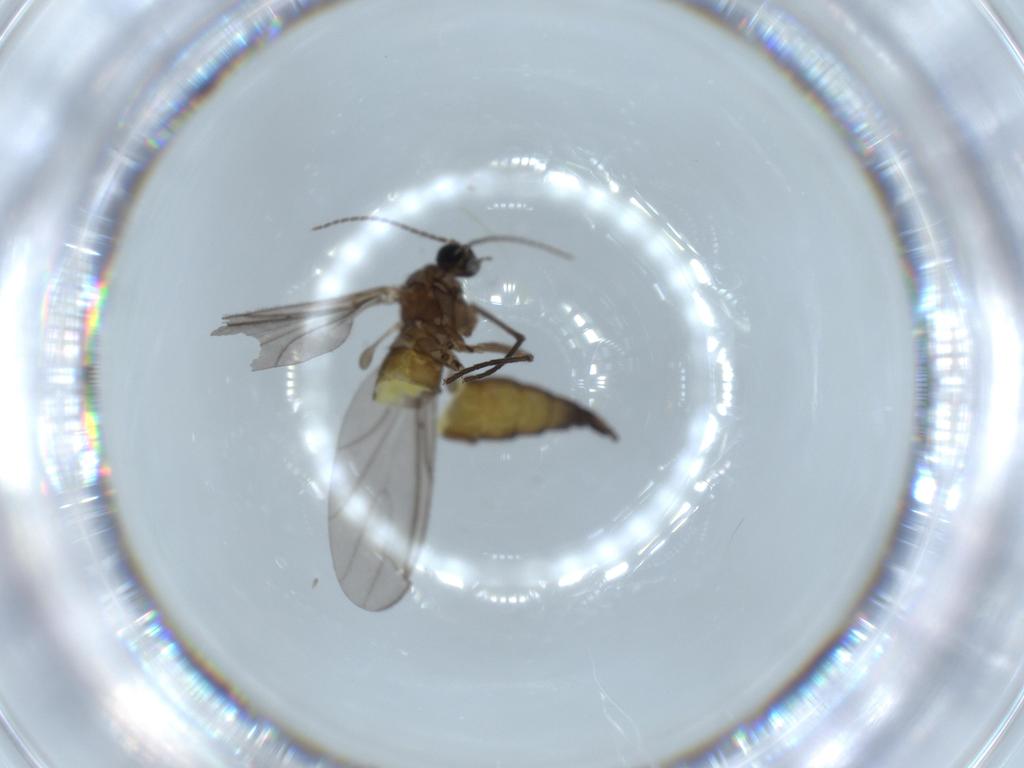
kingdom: Animalia
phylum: Arthropoda
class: Insecta
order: Diptera
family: Sciaridae
